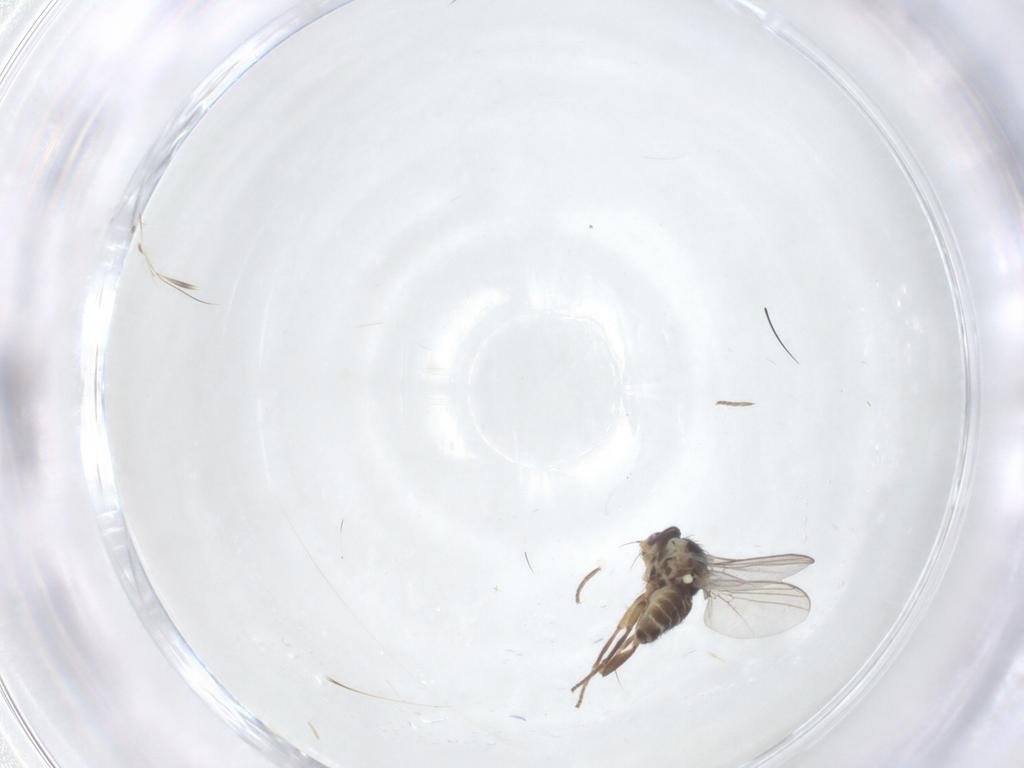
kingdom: Animalia
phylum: Arthropoda
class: Insecta
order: Diptera
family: Agromyzidae
